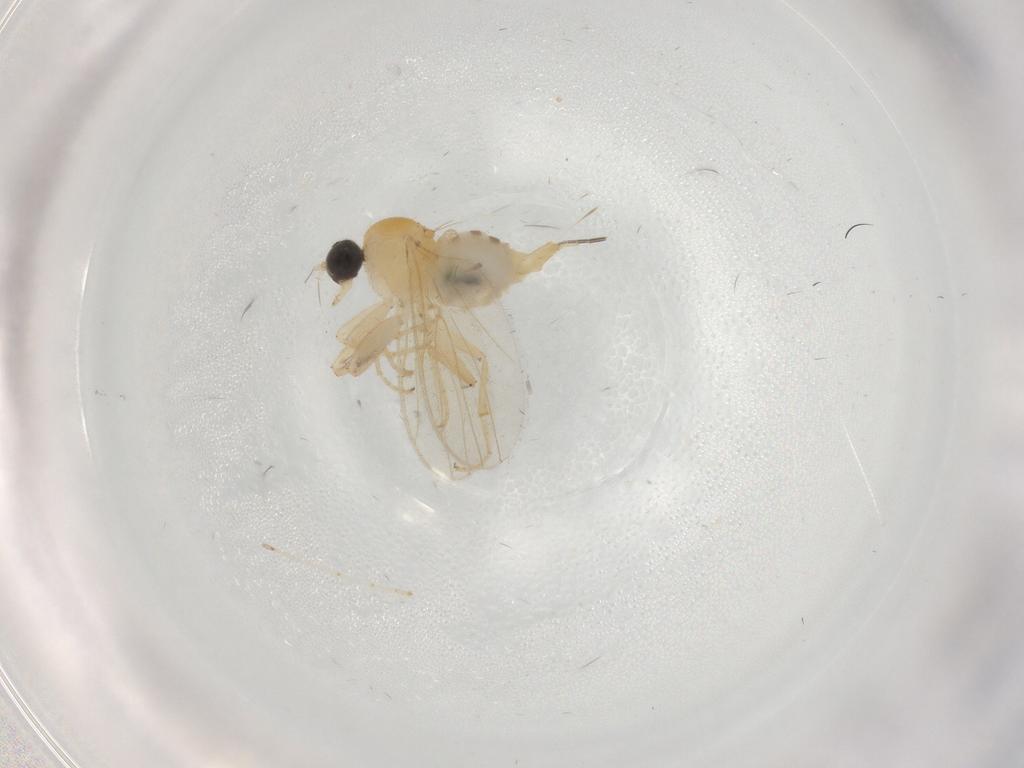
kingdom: Animalia
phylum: Arthropoda
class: Insecta
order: Diptera
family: Sciaridae
